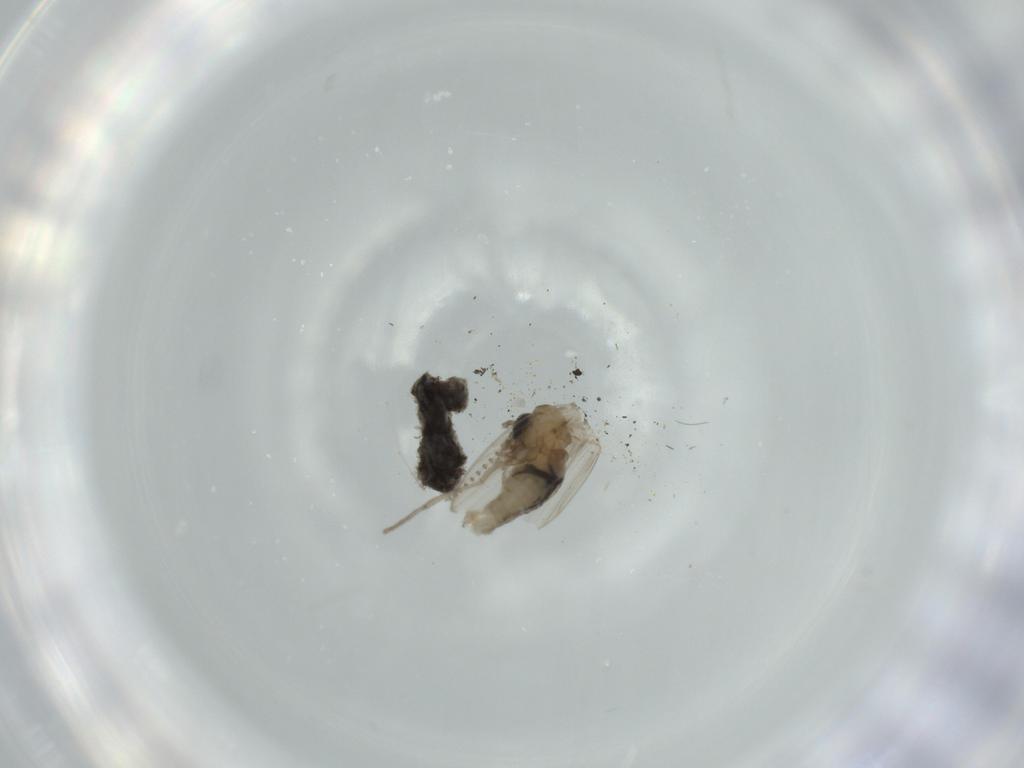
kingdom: Animalia
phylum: Arthropoda
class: Insecta
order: Diptera
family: Psychodidae
